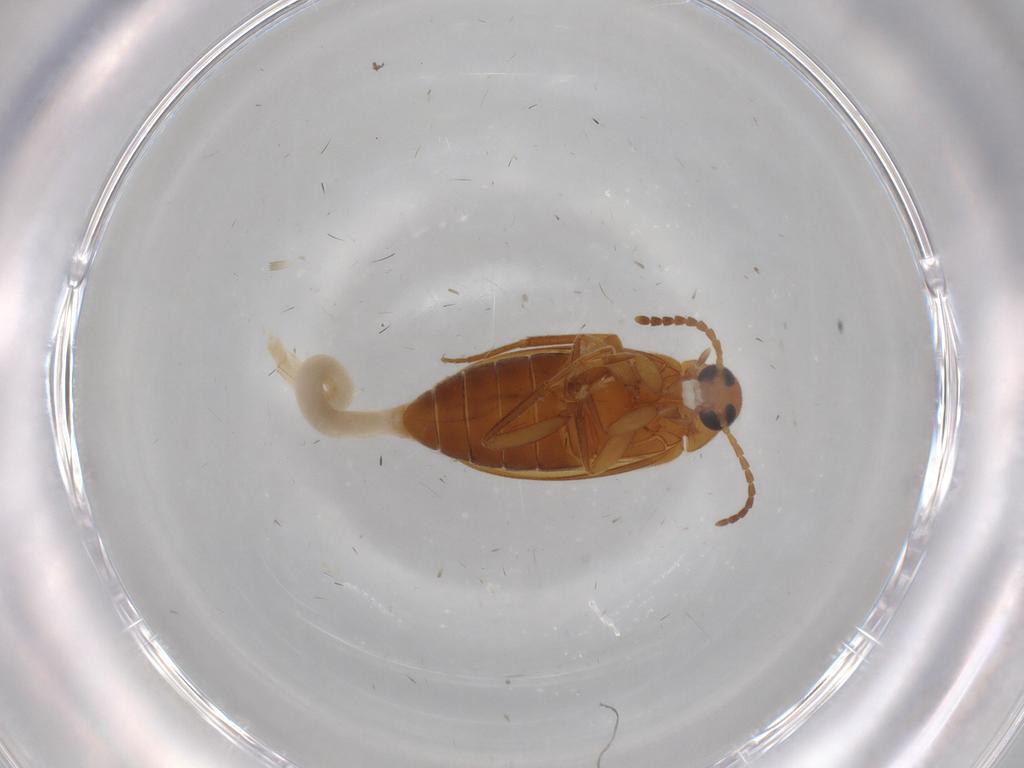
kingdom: Animalia
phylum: Arthropoda
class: Insecta
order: Coleoptera
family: Scraptiidae
